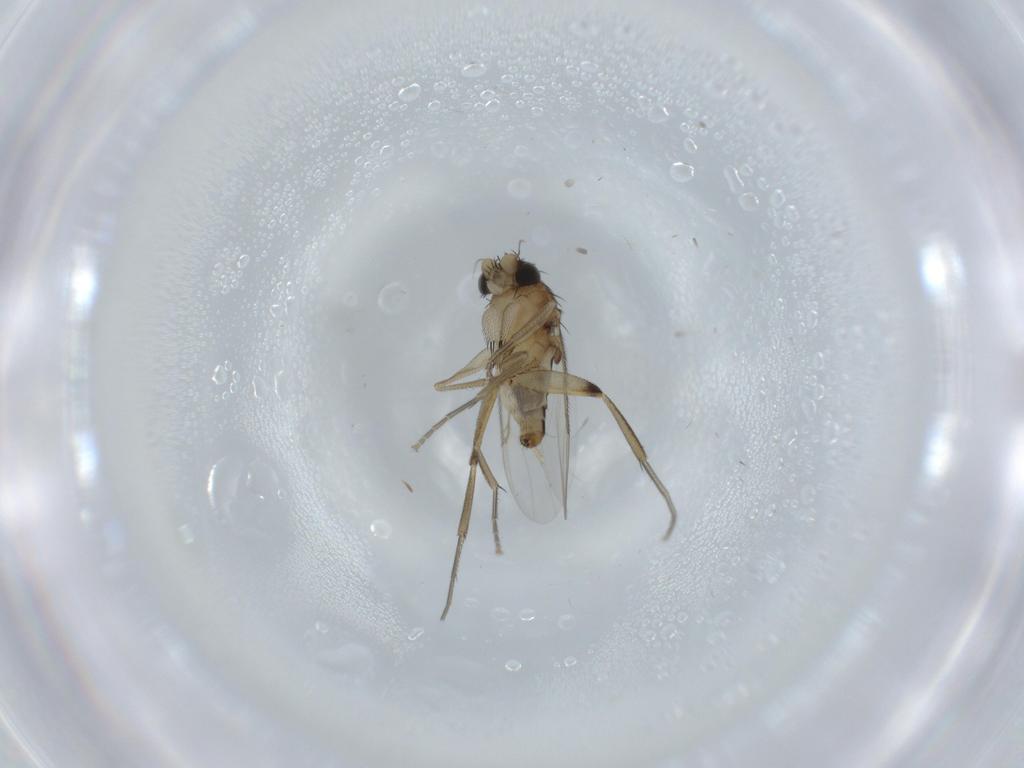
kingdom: Animalia
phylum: Arthropoda
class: Insecta
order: Diptera
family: Phoridae
